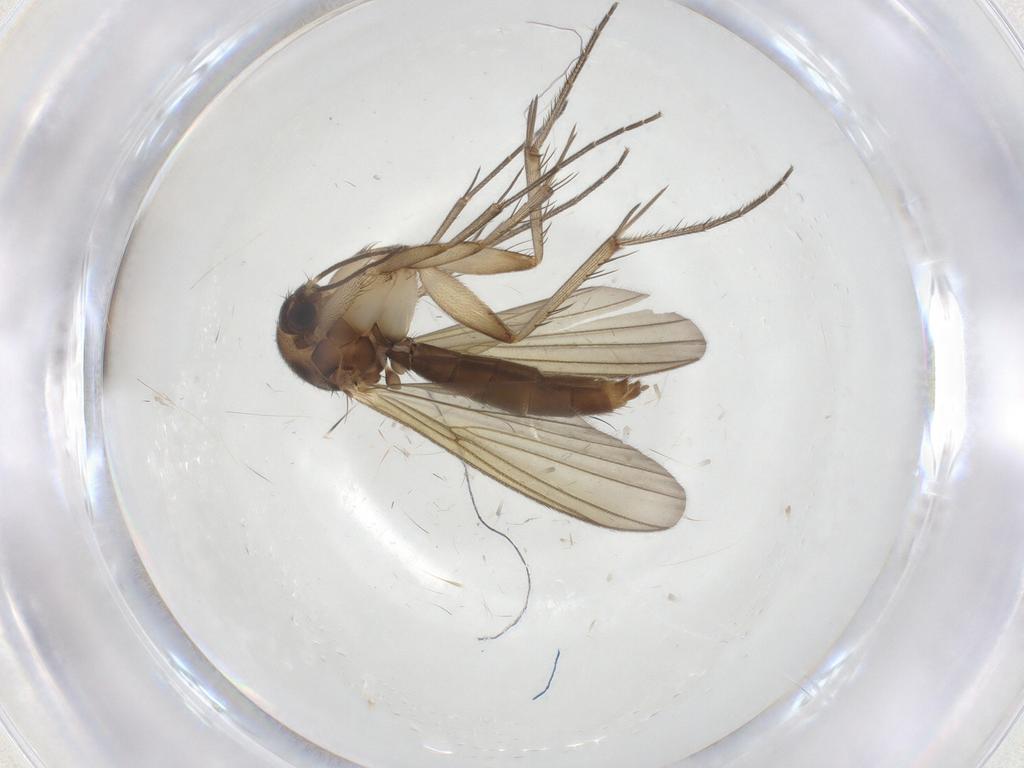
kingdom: Animalia
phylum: Arthropoda
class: Insecta
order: Diptera
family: Mycetophilidae
